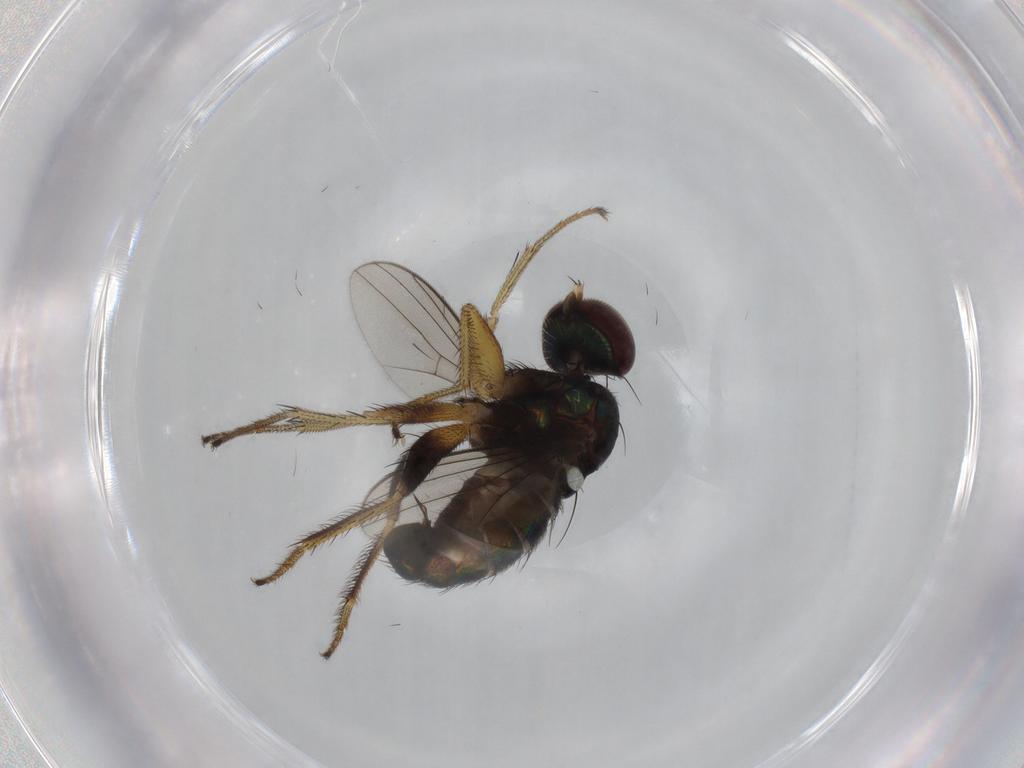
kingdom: Animalia
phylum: Arthropoda
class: Insecta
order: Diptera
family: Dolichopodidae
